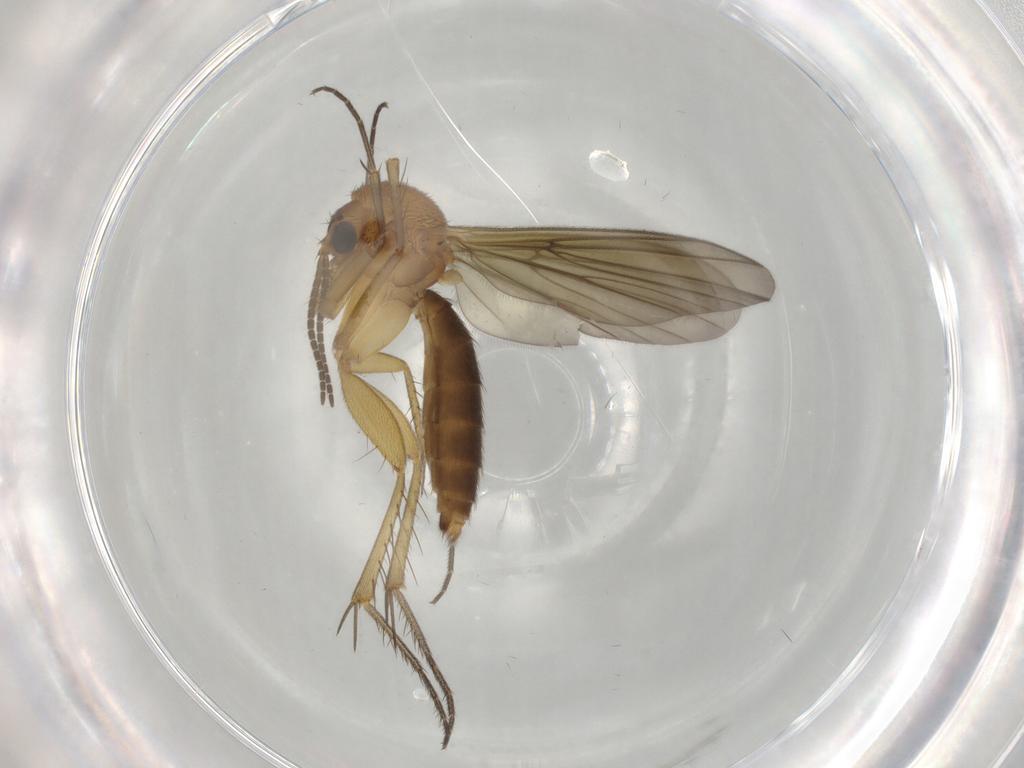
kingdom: Animalia
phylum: Arthropoda
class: Insecta
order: Diptera
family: Mycetophilidae
